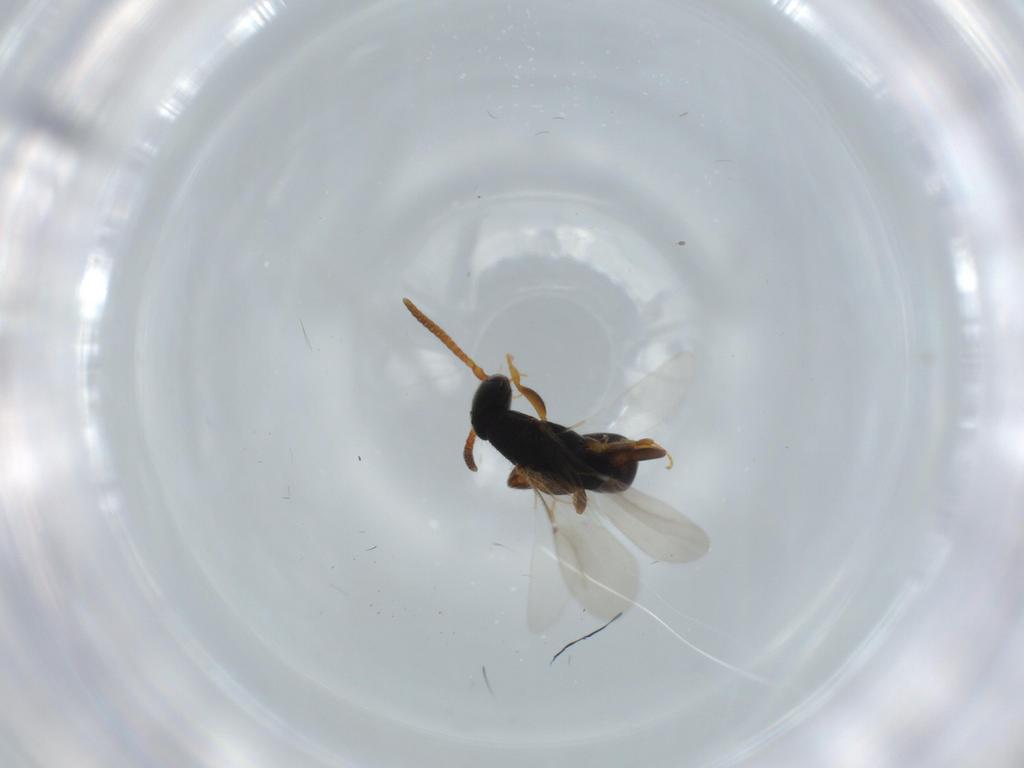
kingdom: Animalia
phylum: Arthropoda
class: Insecta
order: Hymenoptera
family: Bethylidae
